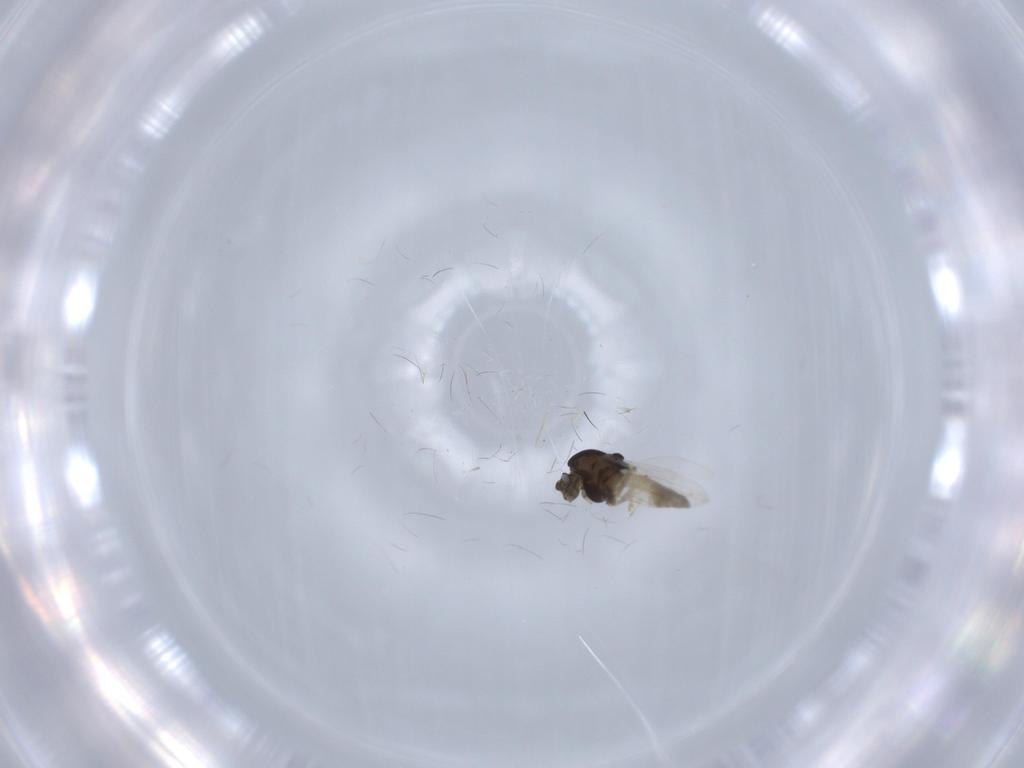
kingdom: Animalia
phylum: Arthropoda
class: Insecta
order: Diptera
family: Chironomidae
